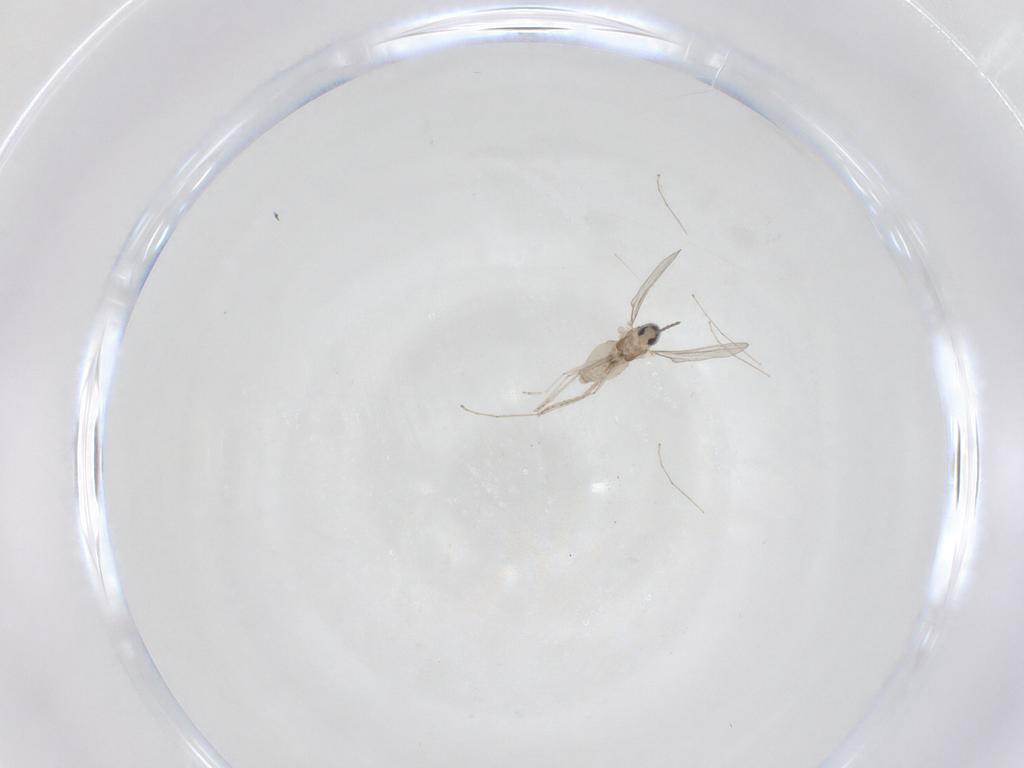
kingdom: Animalia
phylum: Arthropoda
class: Insecta
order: Diptera
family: Cecidomyiidae
